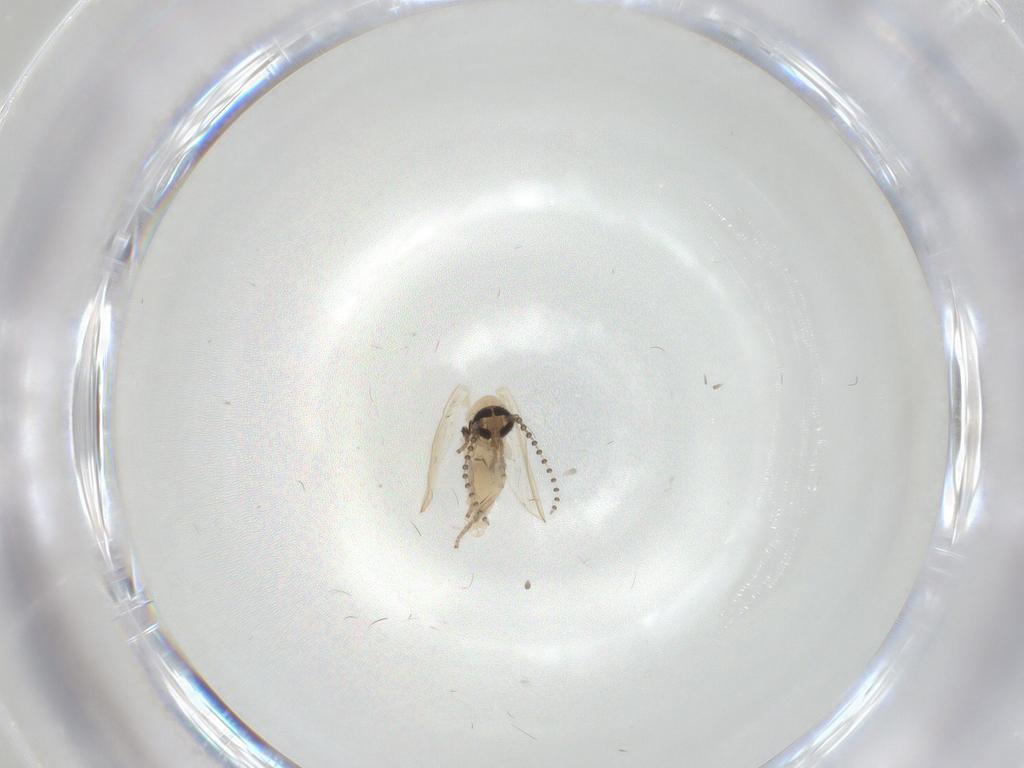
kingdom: Animalia
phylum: Arthropoda
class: Insecta
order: Diptera
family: Psychodidae
